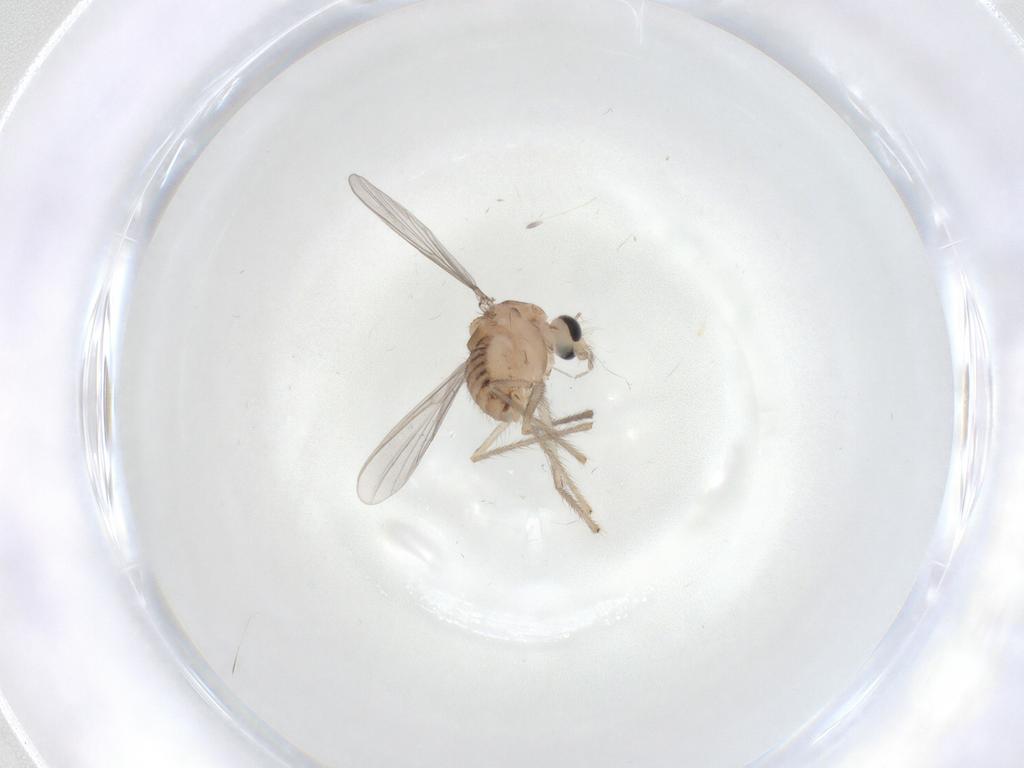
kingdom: Animalia
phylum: Arthropoda
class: Insecta
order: Diptera
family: Chironomidae
